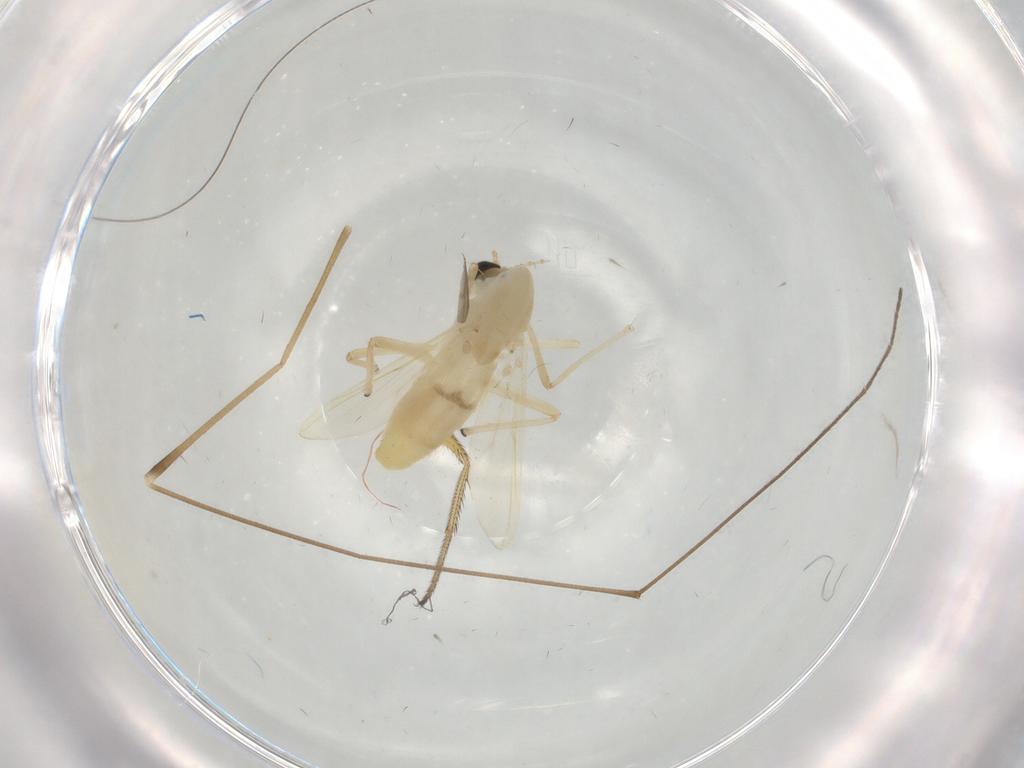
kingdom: Animalia
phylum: Arthropoda
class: Insecta
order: Diptera
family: Chironomidae
